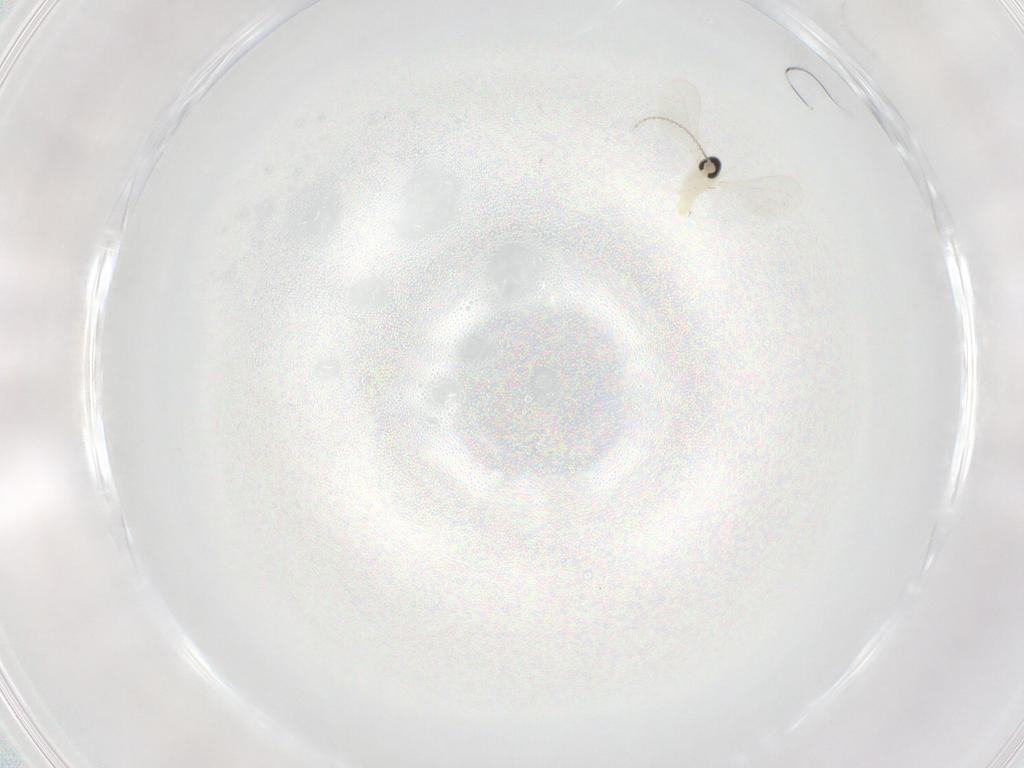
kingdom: Animalia
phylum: Arthropoda
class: Insecta
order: Diptera
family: Cecidomyiidae
